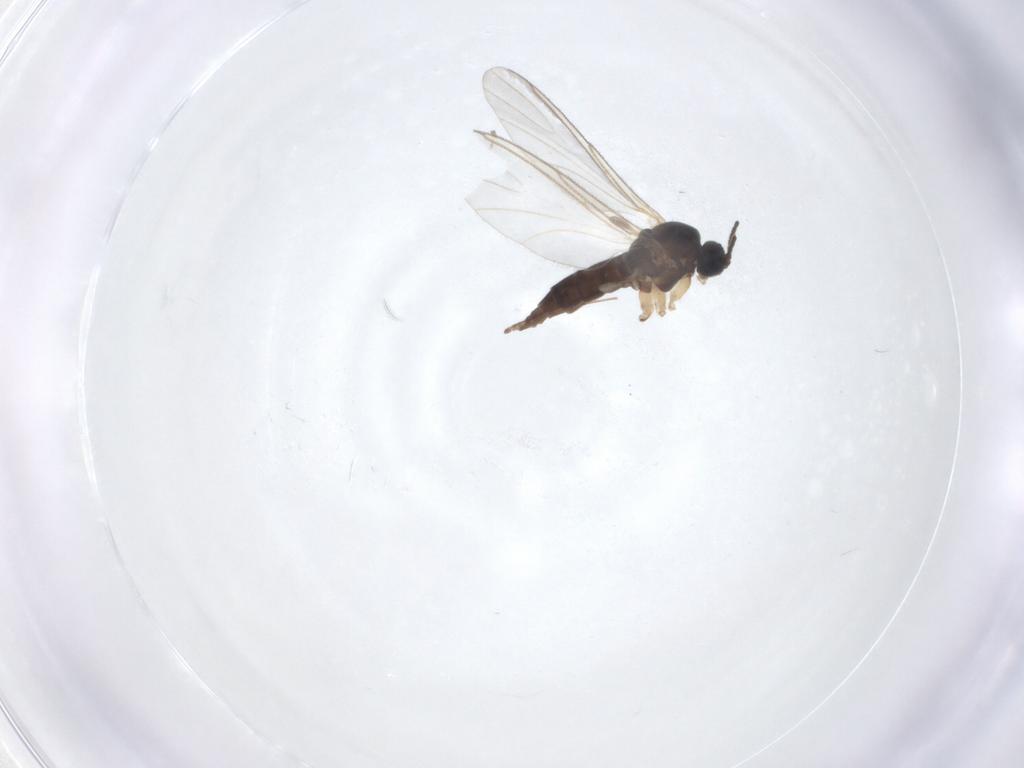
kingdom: Animalia
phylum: Arthropoda
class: Insecta
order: Diptera
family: Sciaridae
